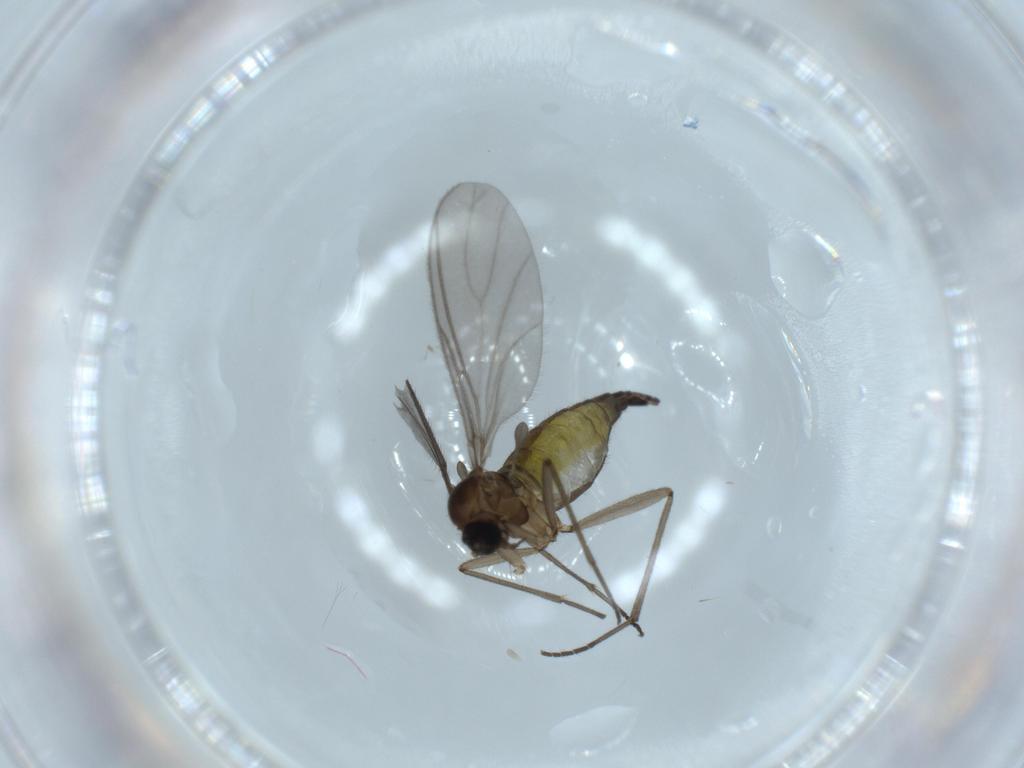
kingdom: Animalia
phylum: Arthropoda
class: Insecta
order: Diptera
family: Sciaridae
